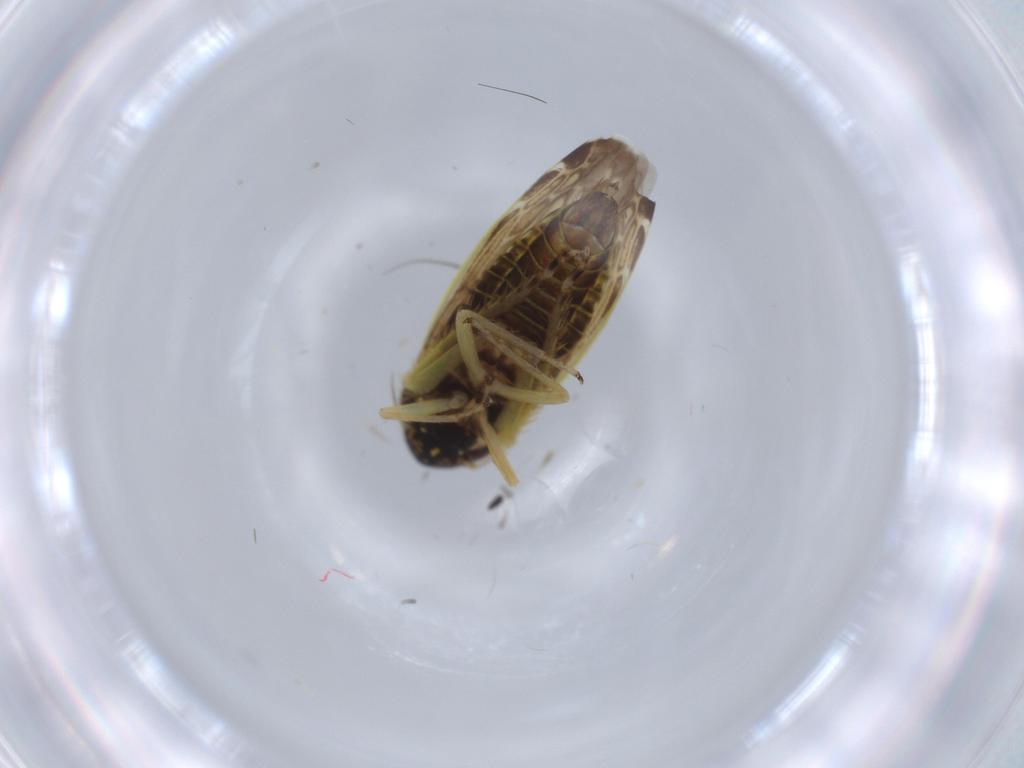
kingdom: Animalia
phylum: Arthropoda
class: Insecta
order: Hemiptera
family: Cicadellidae
